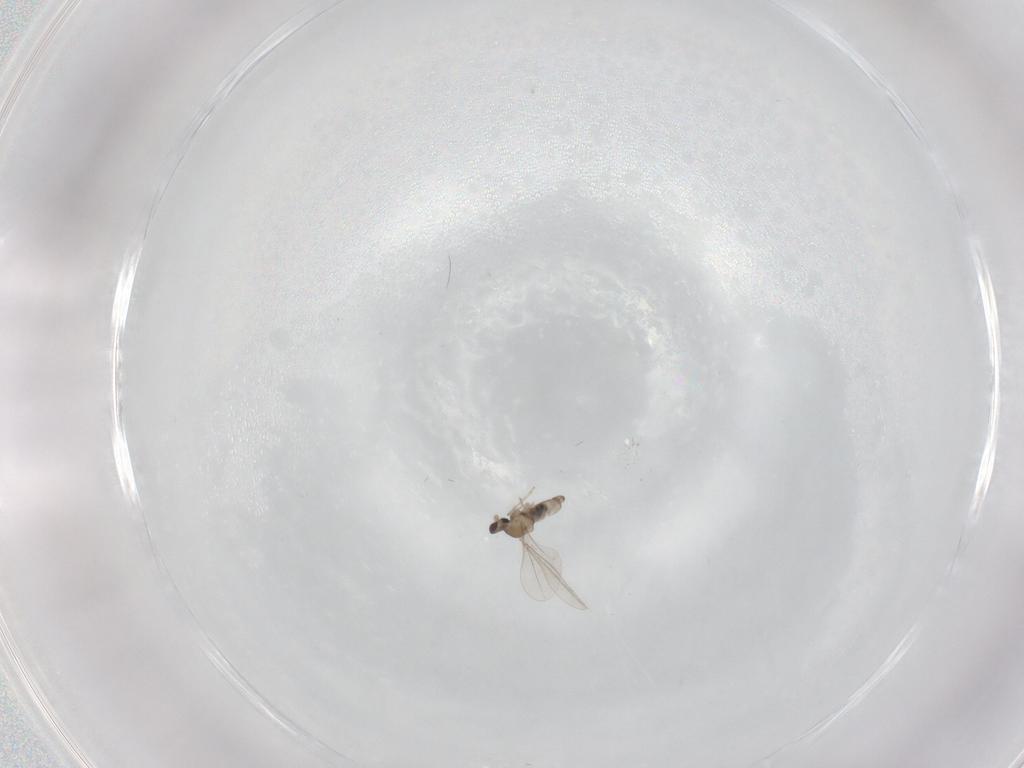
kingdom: Animalia
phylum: Arthropoda
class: Insecta
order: Diptera
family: Cecidomyiidae
